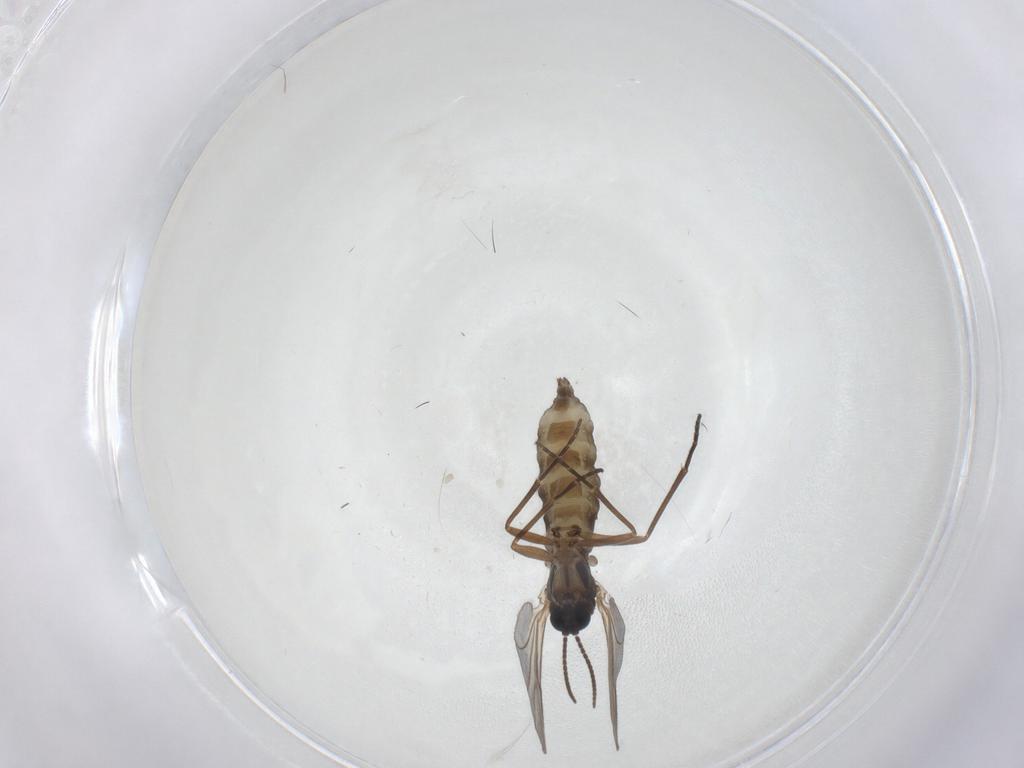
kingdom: Animalia
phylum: Arthropoda
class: Insecta
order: Diptera
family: Sciaridae
